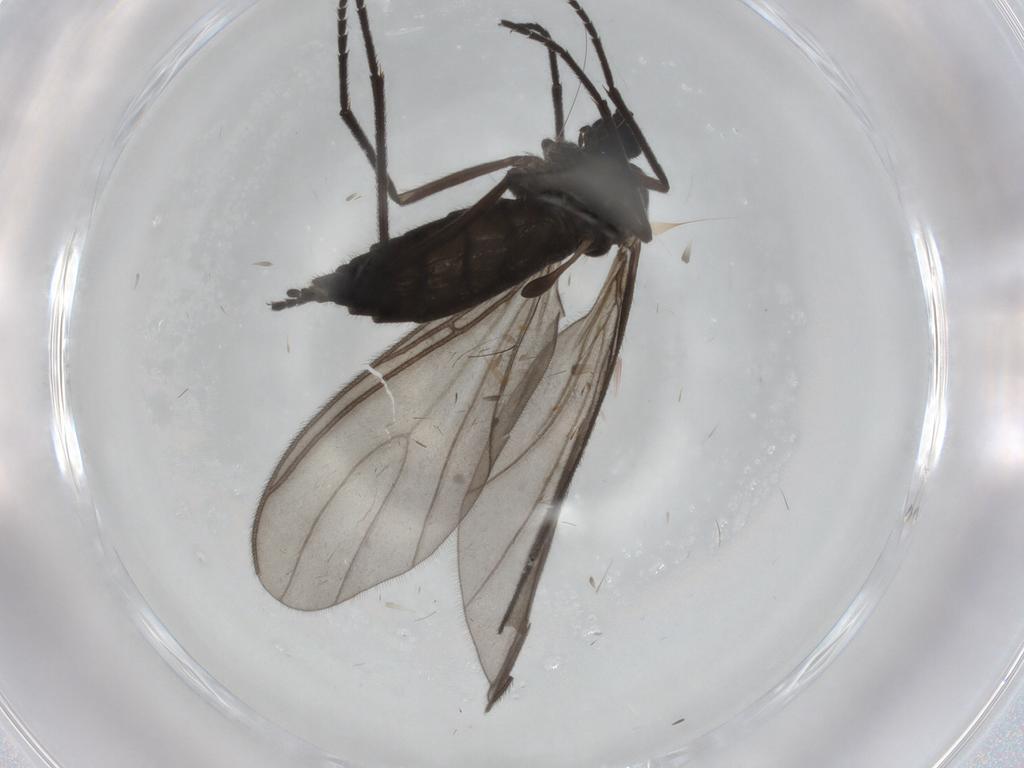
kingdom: Animalia
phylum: Arthropoda
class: Insecta
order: Diptera
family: Sciaridae
